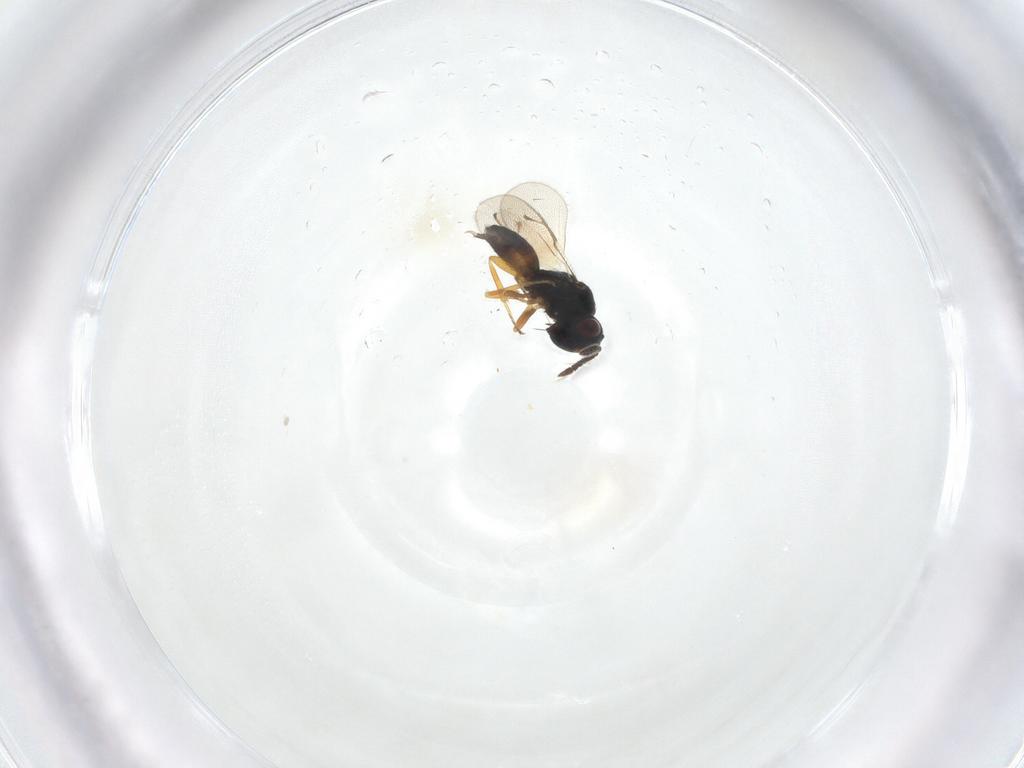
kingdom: Animalia
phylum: Arthropoda
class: Insecta
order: Hymenoptera
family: Pteromalidae
